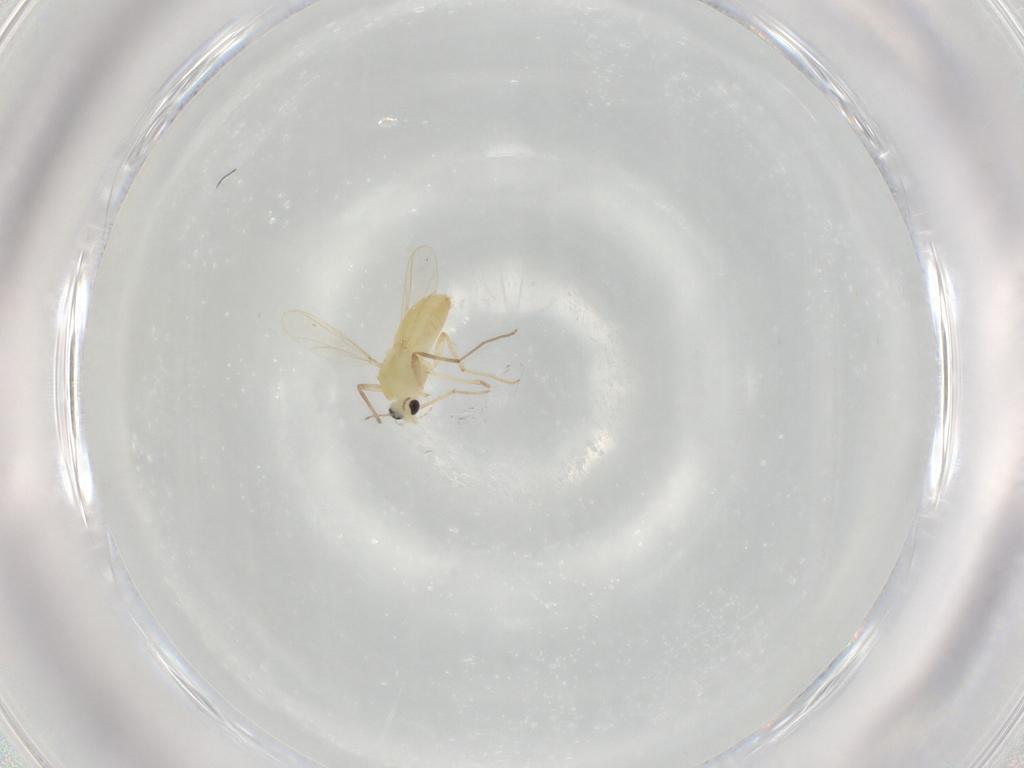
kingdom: Animalia
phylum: Arthropoda
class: Insecta
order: Diptera
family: Chironomidae
